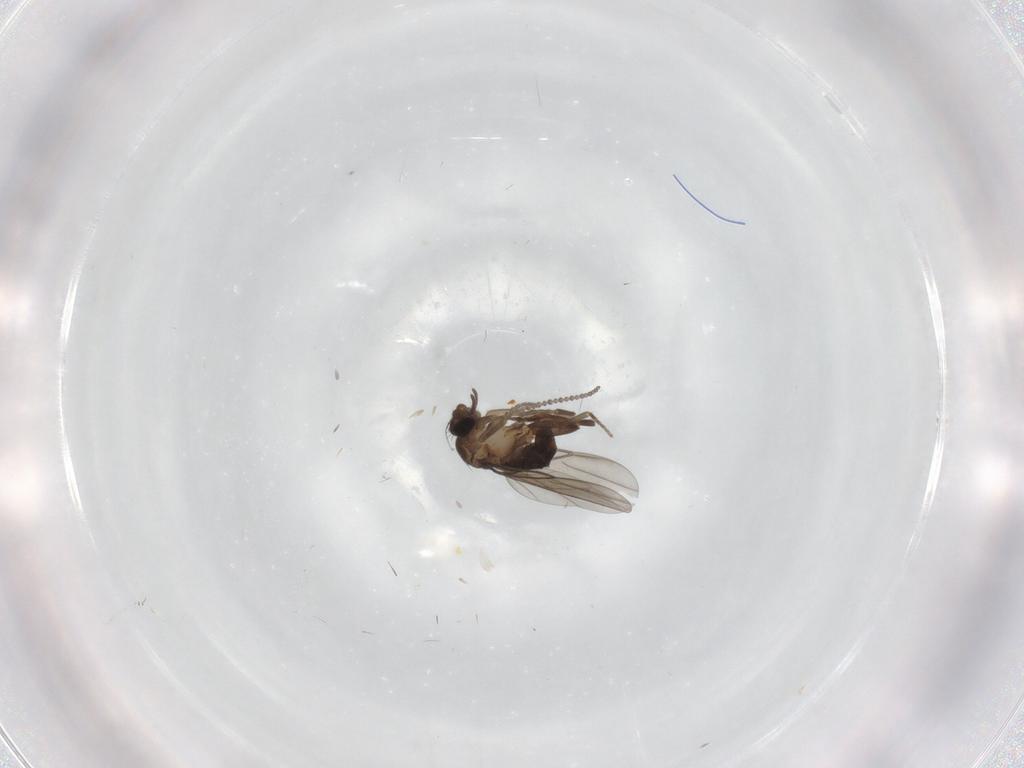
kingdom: Animalia
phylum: Arthropoda
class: Insecta
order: Diptera
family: Phoridae
